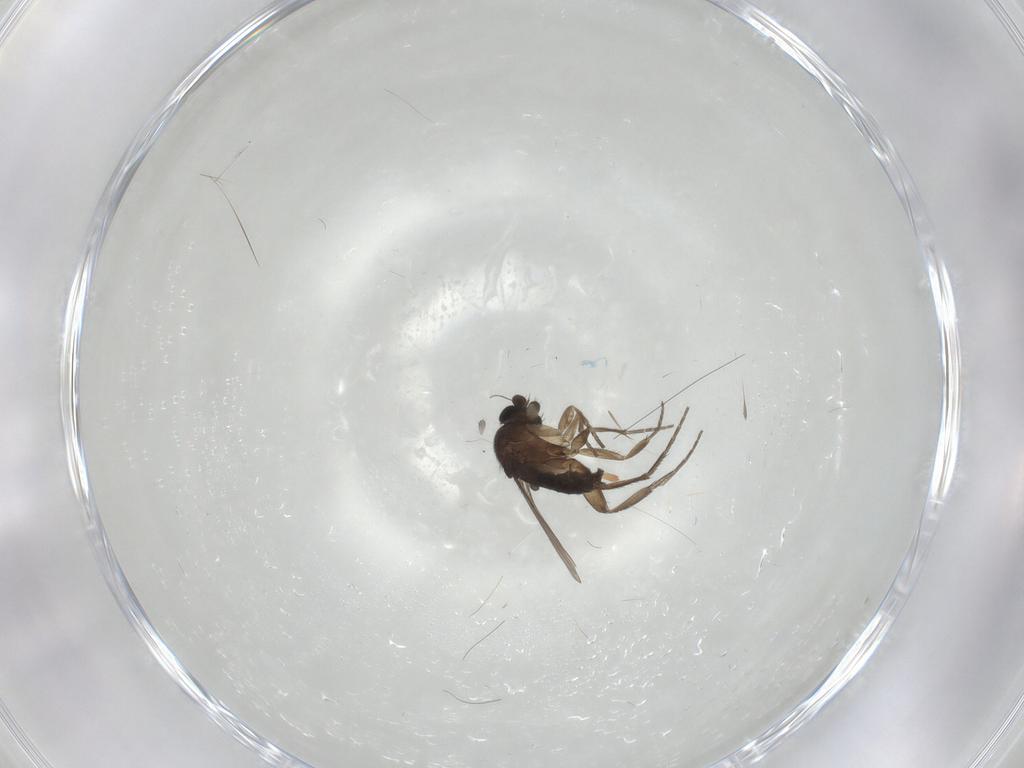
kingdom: Animalia
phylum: Arthropoda
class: Insecta
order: Diptera
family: Phoridae
